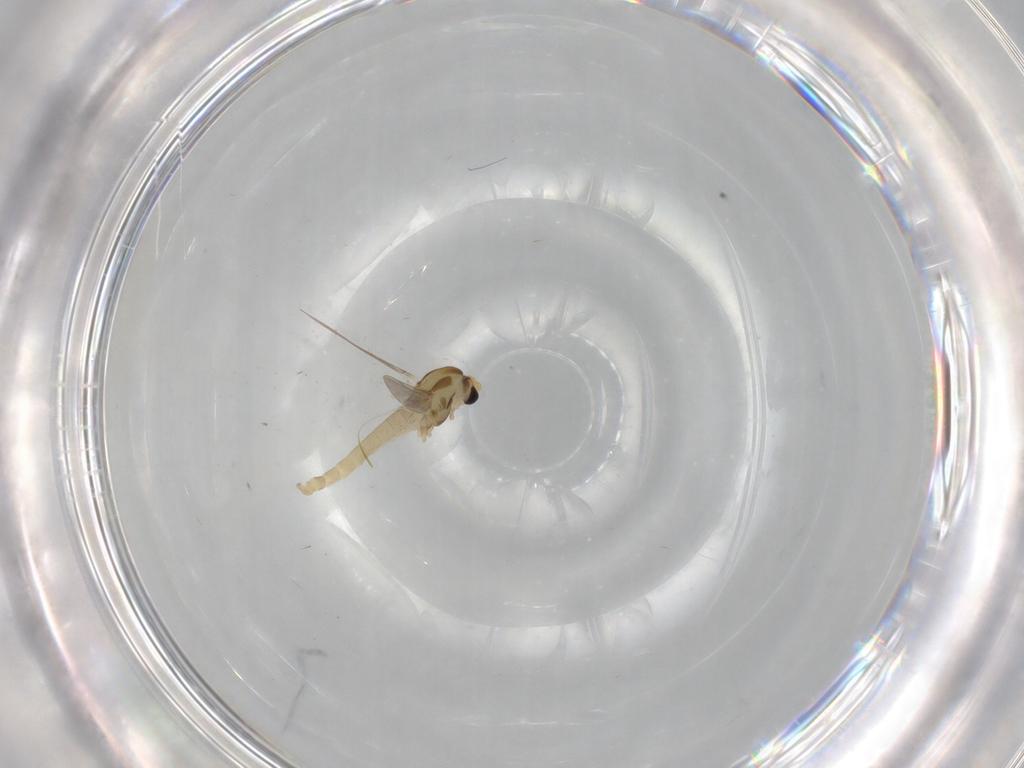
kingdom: Animalia
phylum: Arthropoda
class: Insecta
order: Diptera
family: Cecidomyiidae
